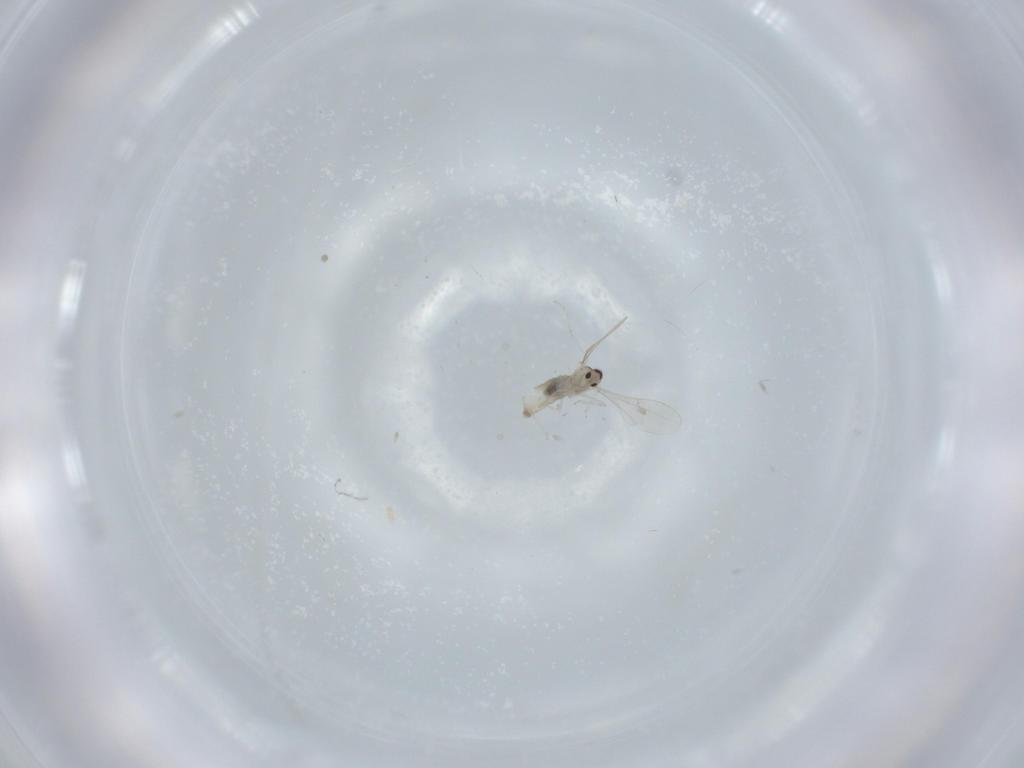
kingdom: Animalia
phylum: Arthropoda
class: Insecta
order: Diptera
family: Cecidomyiidae
